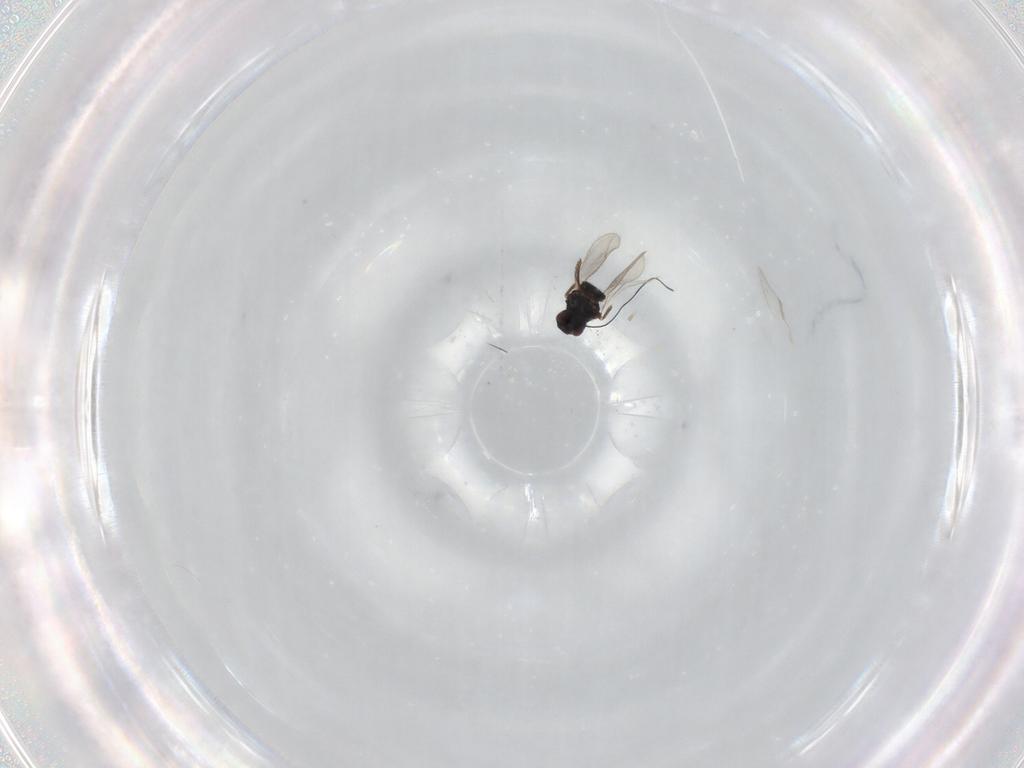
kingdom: Animalia
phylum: Arthropoda
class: Insecta
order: Hymenoptera
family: Tetracampidae
